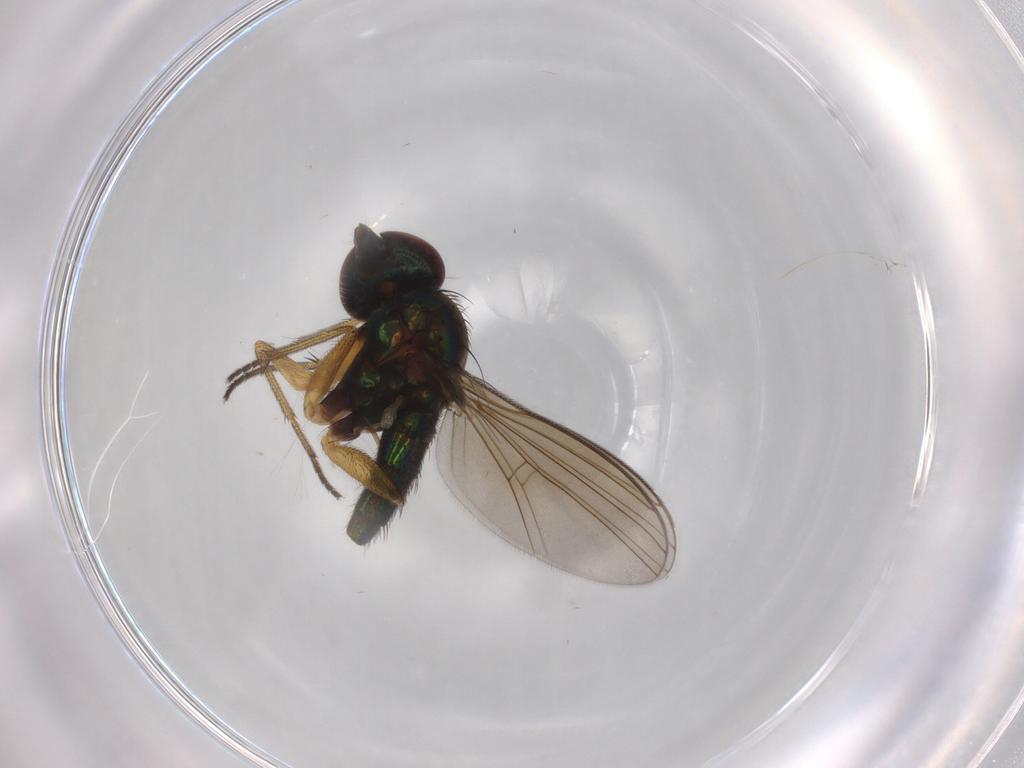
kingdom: Animalia
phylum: Arthropoda
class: Insecta
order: Diptera
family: Dolichopodidae
